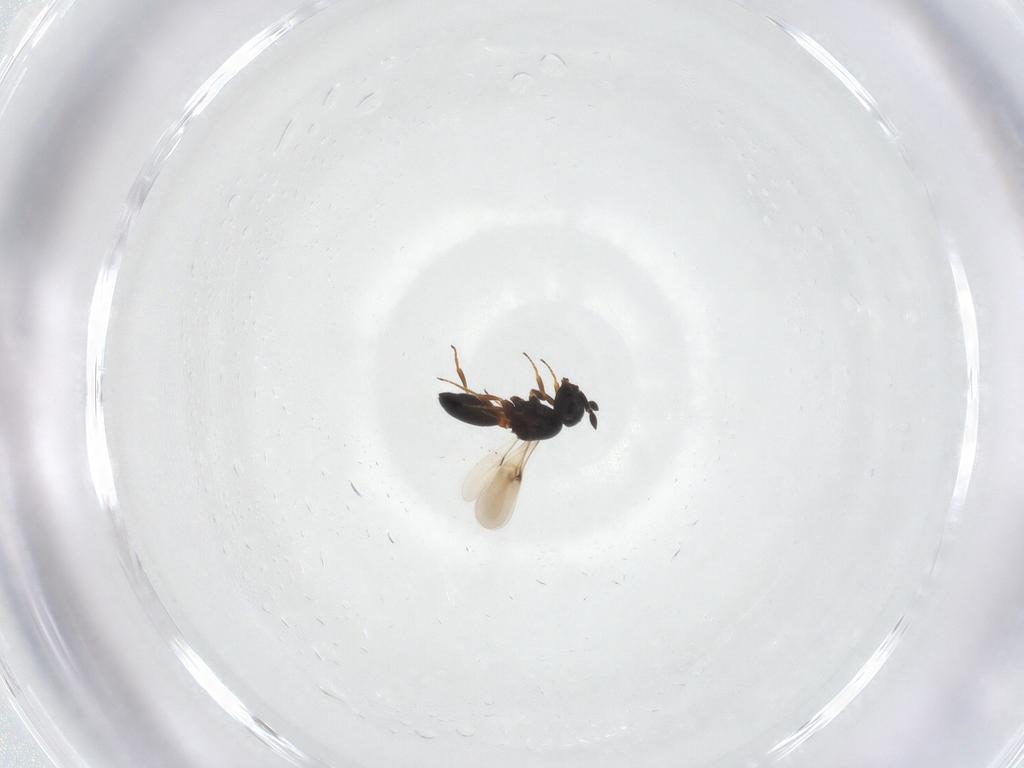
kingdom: Animalia
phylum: Arthropoda
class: Insecta
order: Hymenoptera
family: Scelionidae
